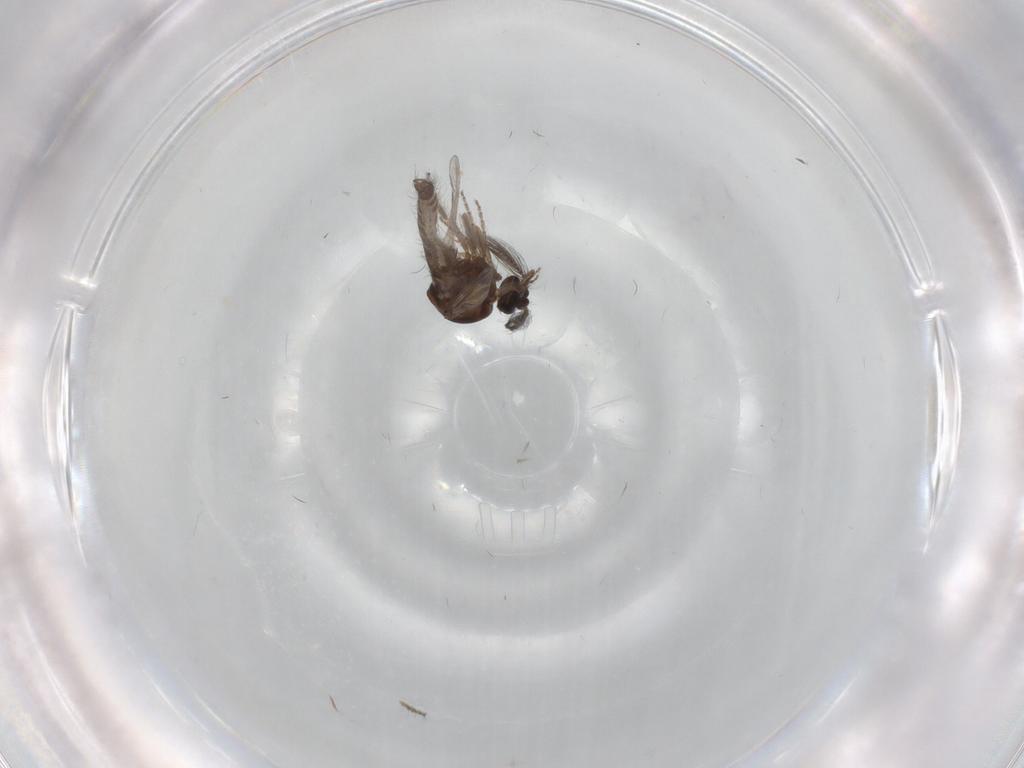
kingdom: Animalia
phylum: Arthropoda
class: Insecta
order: Diptera
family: Ceratopogonidae
